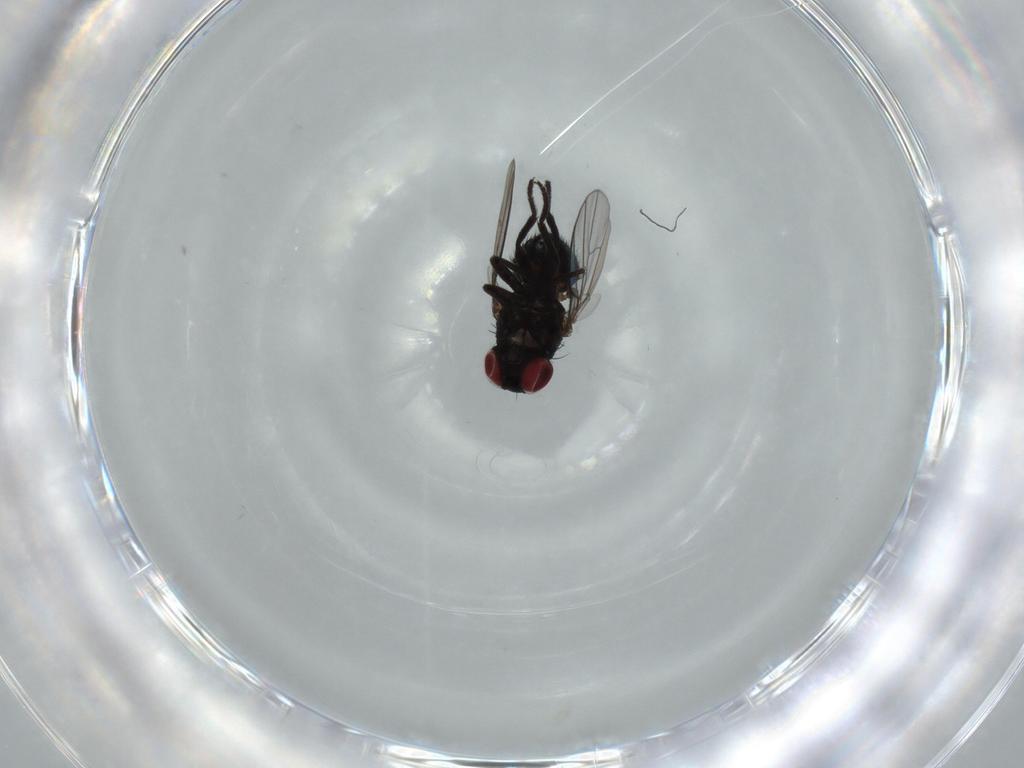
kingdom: Animalia
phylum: Arthropoda
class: Insecta
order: Diptera
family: Agromyzidae
